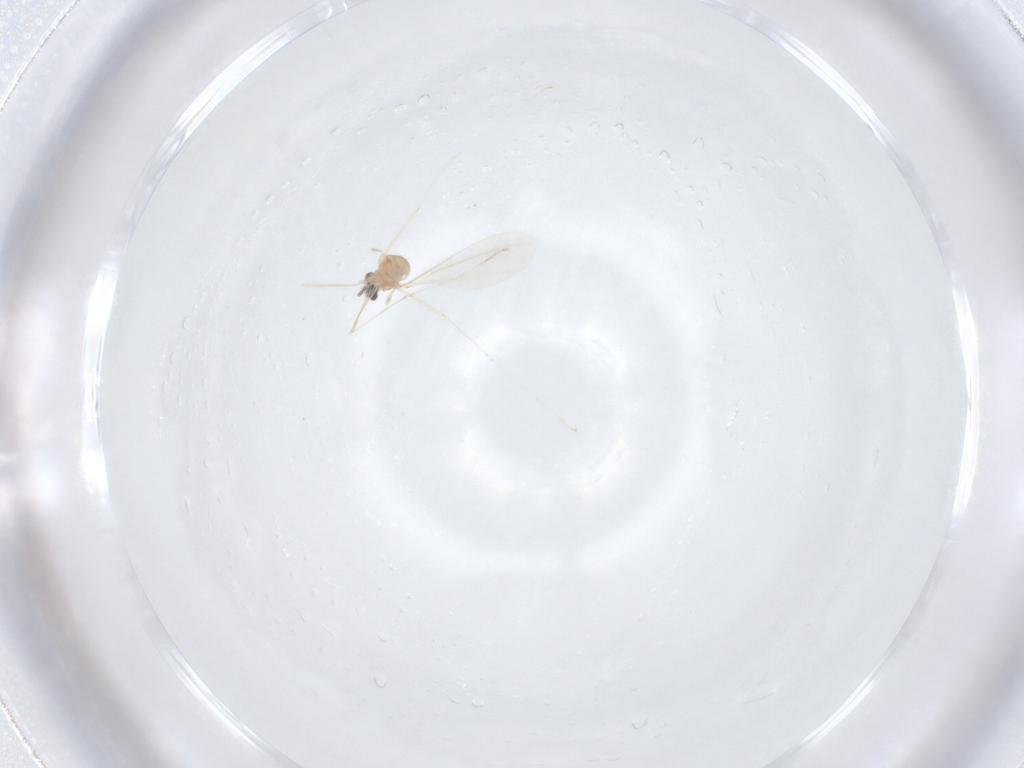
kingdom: Animalia
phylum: Arthropoda
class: Insecta
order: Diptera
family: Cecidomyiidae
